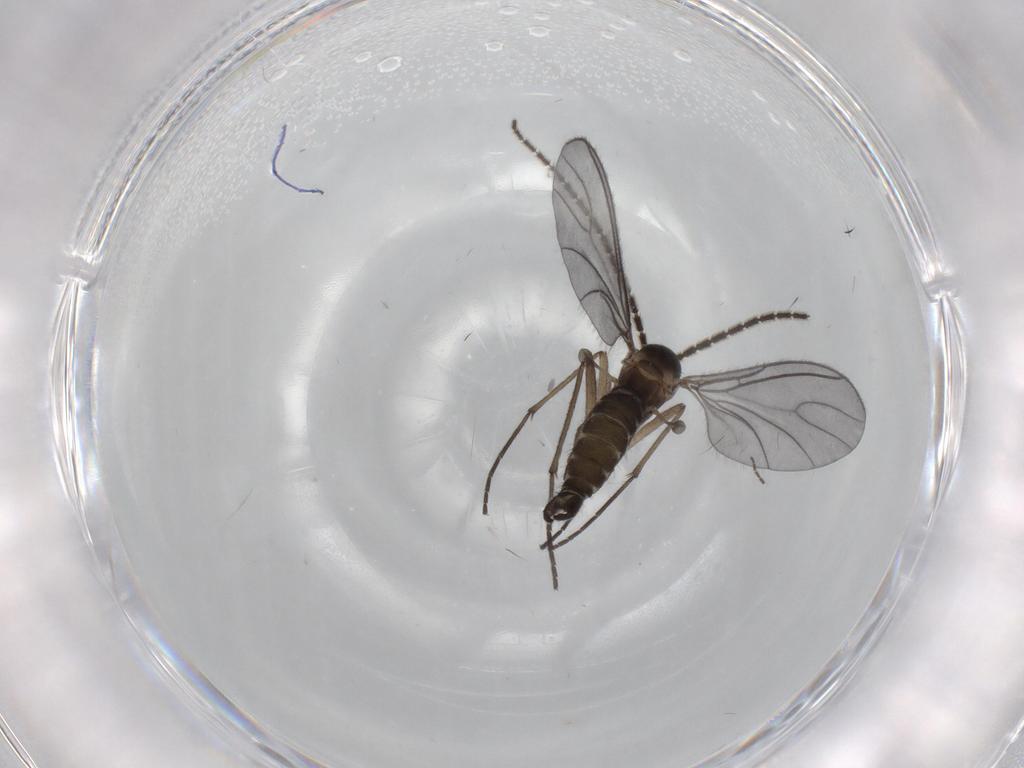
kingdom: Animalia
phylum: Arthropoda
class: Insecta
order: Diptera
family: Sciaridae
